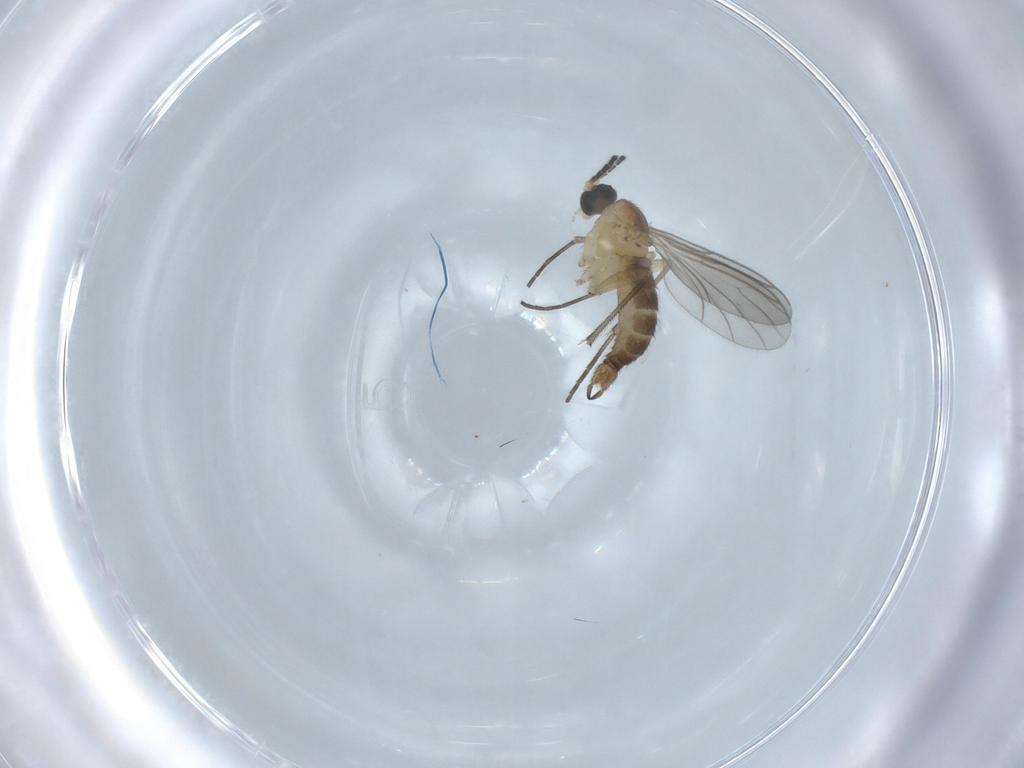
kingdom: Animalia
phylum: Arthropoda
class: Insecta
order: Diptera
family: Sciaridae
